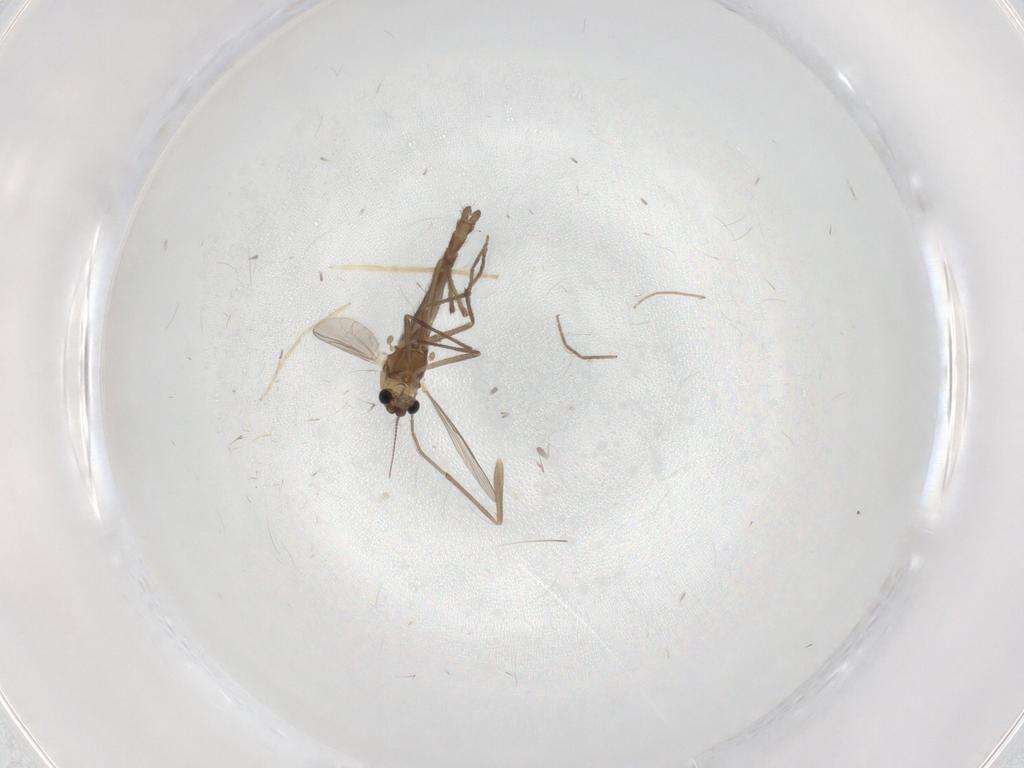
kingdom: Animalia
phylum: Arthropoda
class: Insecta
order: Diptera
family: Chironomidae
